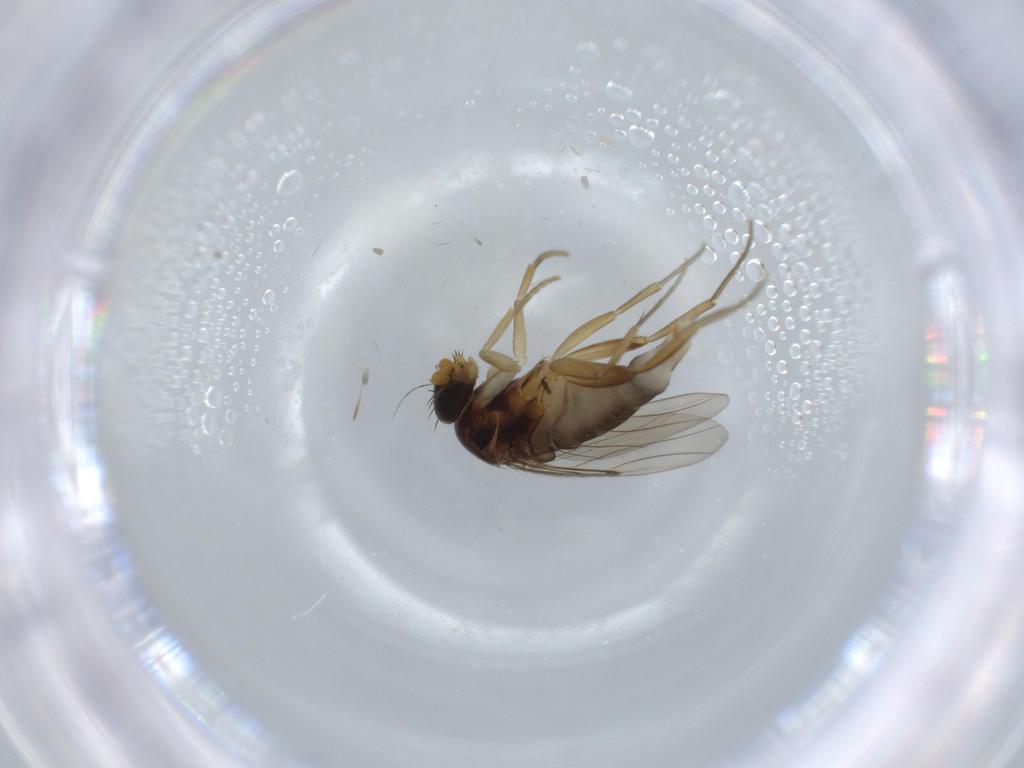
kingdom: Animalia
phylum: Arthropoda
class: Insecta
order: Diptera
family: Phoridae
